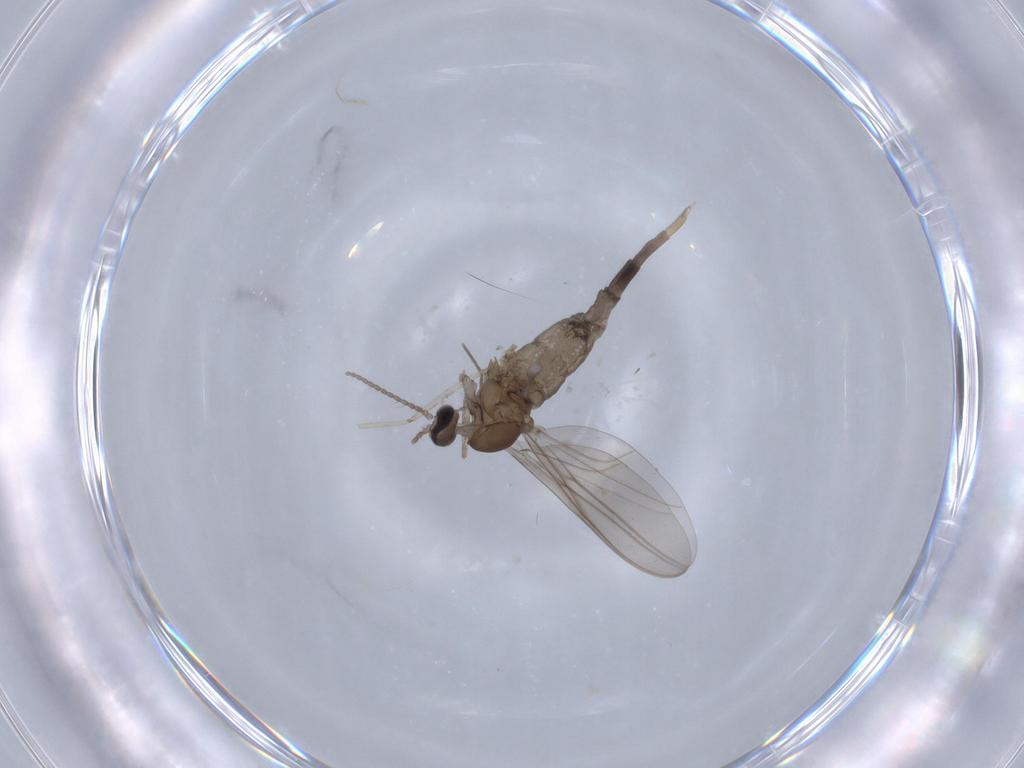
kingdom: Animalia
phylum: Arthropoda
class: Insecta
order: Diptera
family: Cecidomyiidae
